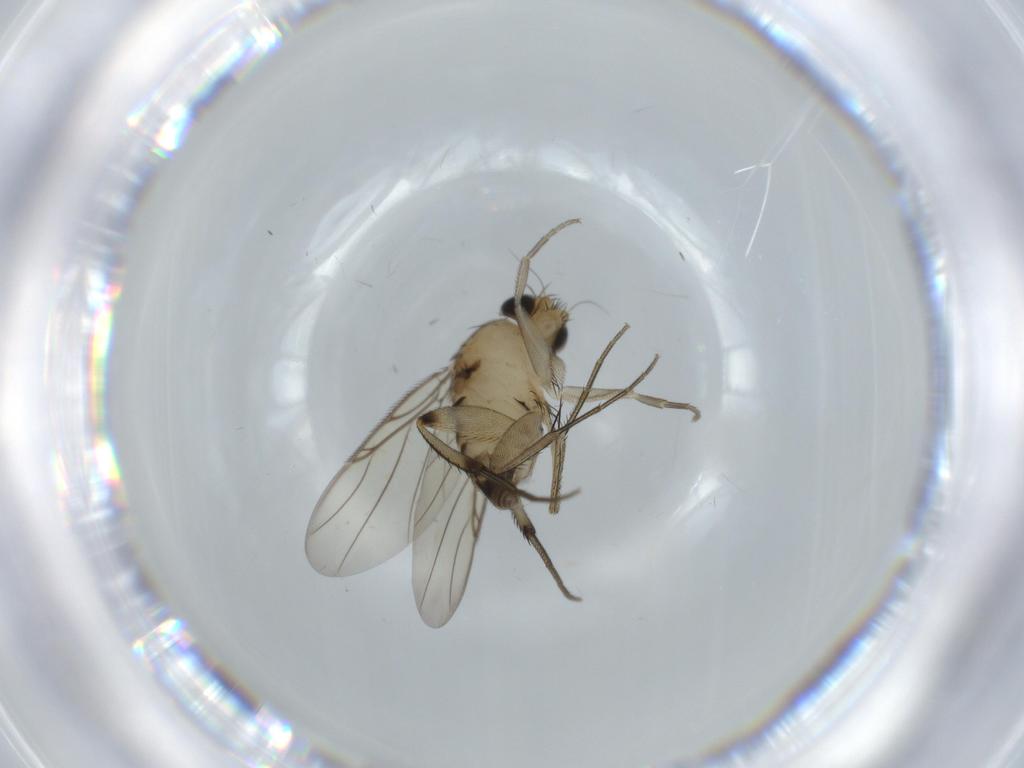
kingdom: Animalia
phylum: Arthropoda
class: Insecta
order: Diptera
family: Phoridae
